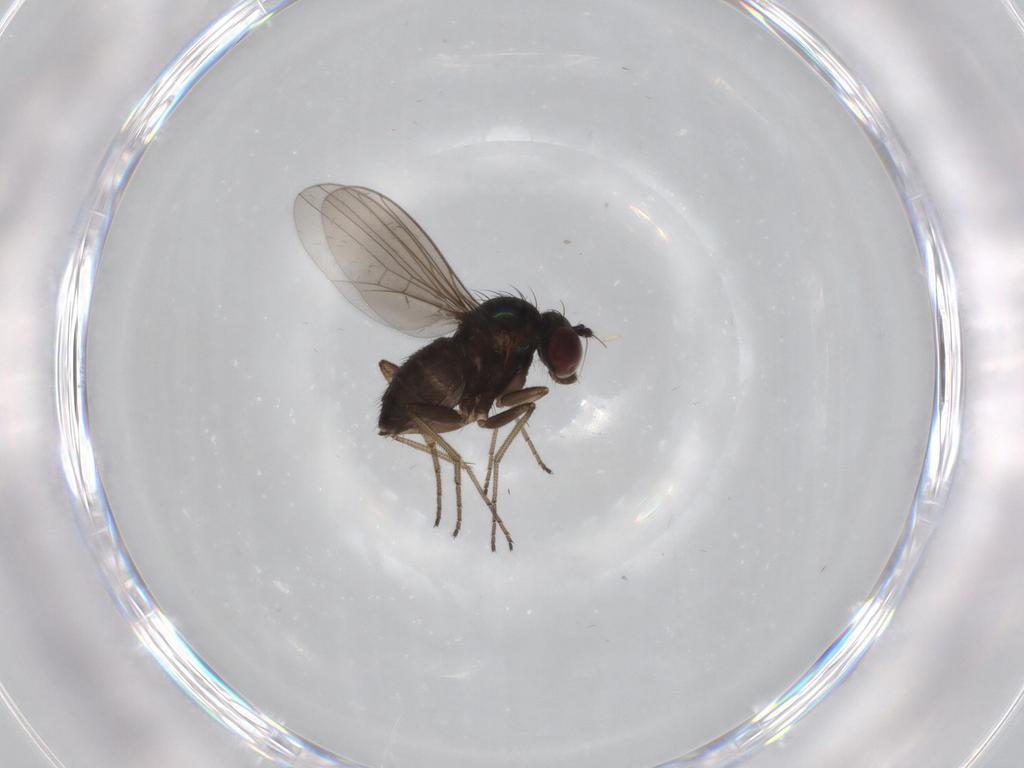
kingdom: Animalia
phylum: Arthropoda
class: Insecta
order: Diptera
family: Dolichopodidae
